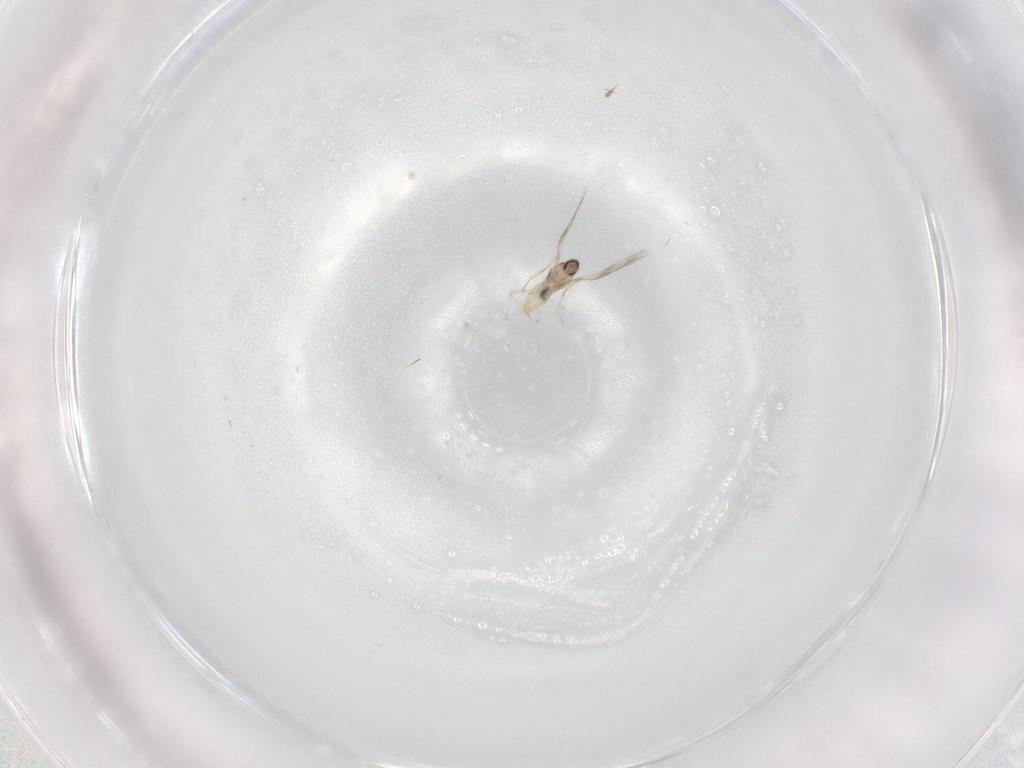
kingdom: Animalia
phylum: Arthropoda
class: Insecta
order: Diptera
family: Cecidomyiidae
